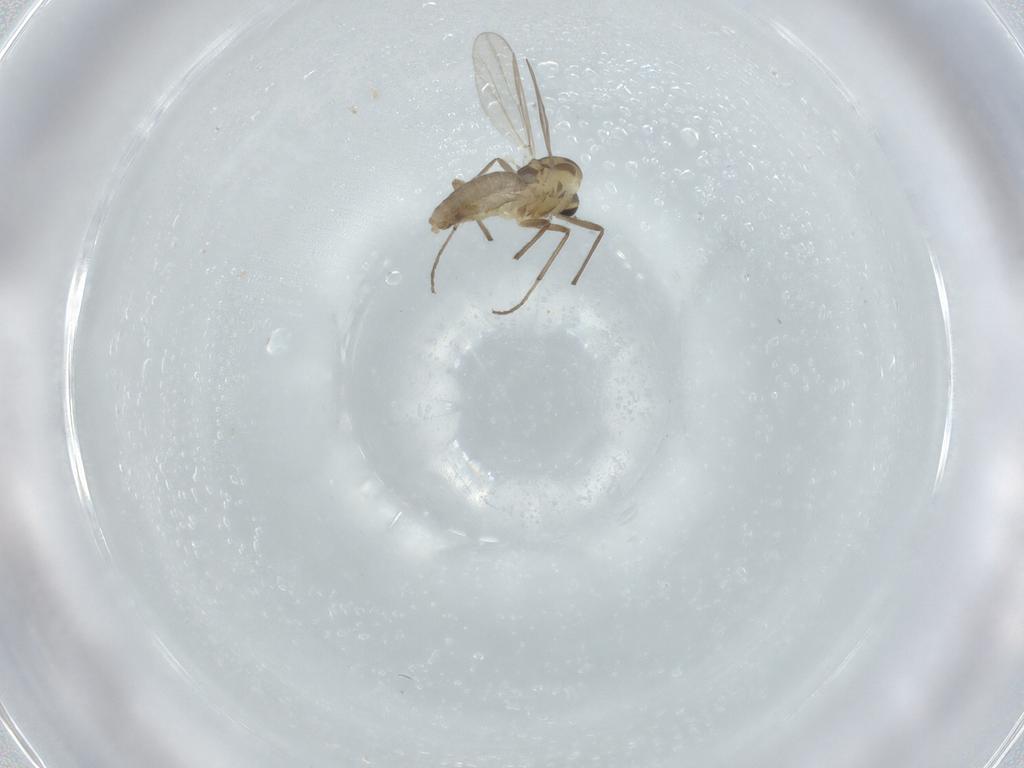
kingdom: Animalia
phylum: Arthropoda
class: Insecta
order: Diptera
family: Chironomidae
